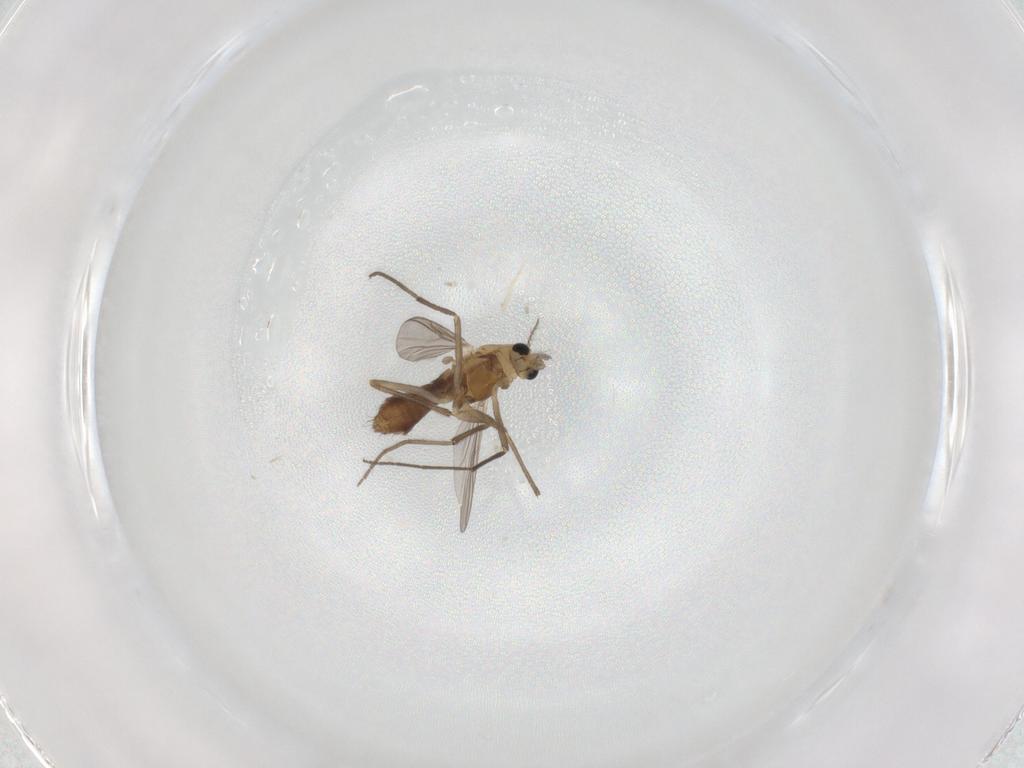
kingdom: Animalia
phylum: Arthropoda
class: Insecta
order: Diptera
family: Chironomidae
